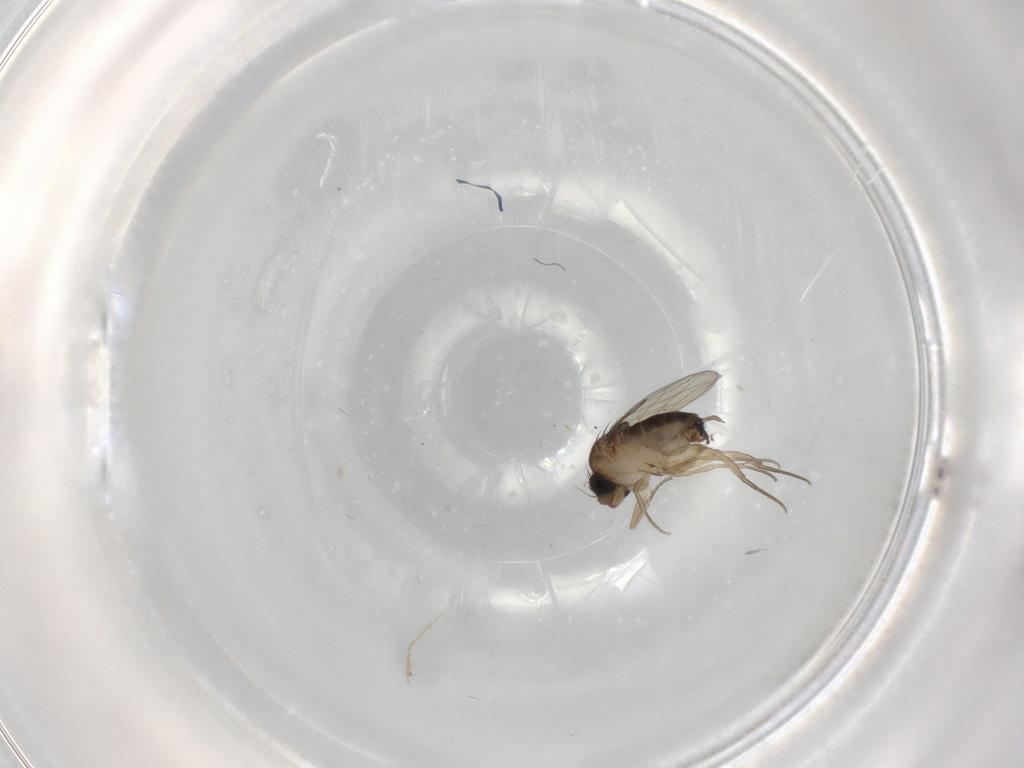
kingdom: Animalia
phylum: Arthropoda
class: Insecta
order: Diptera
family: Phoridae
